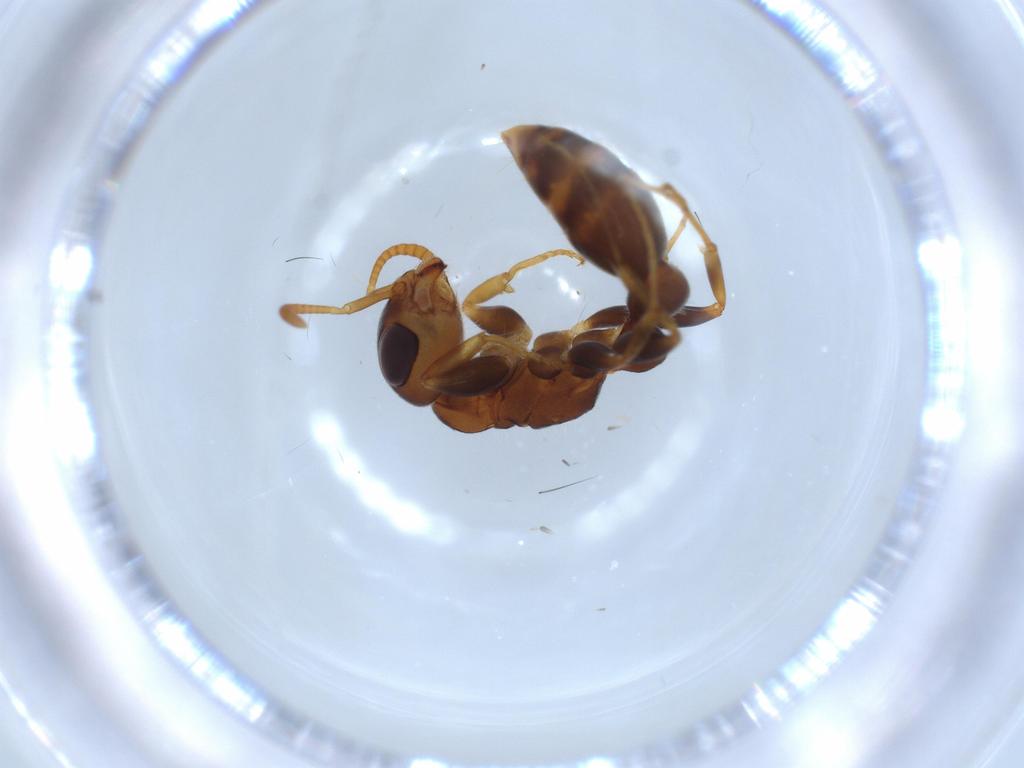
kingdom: Animalia
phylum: Arthropoda
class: Insecta
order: Hymenoptera
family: Formicidae
